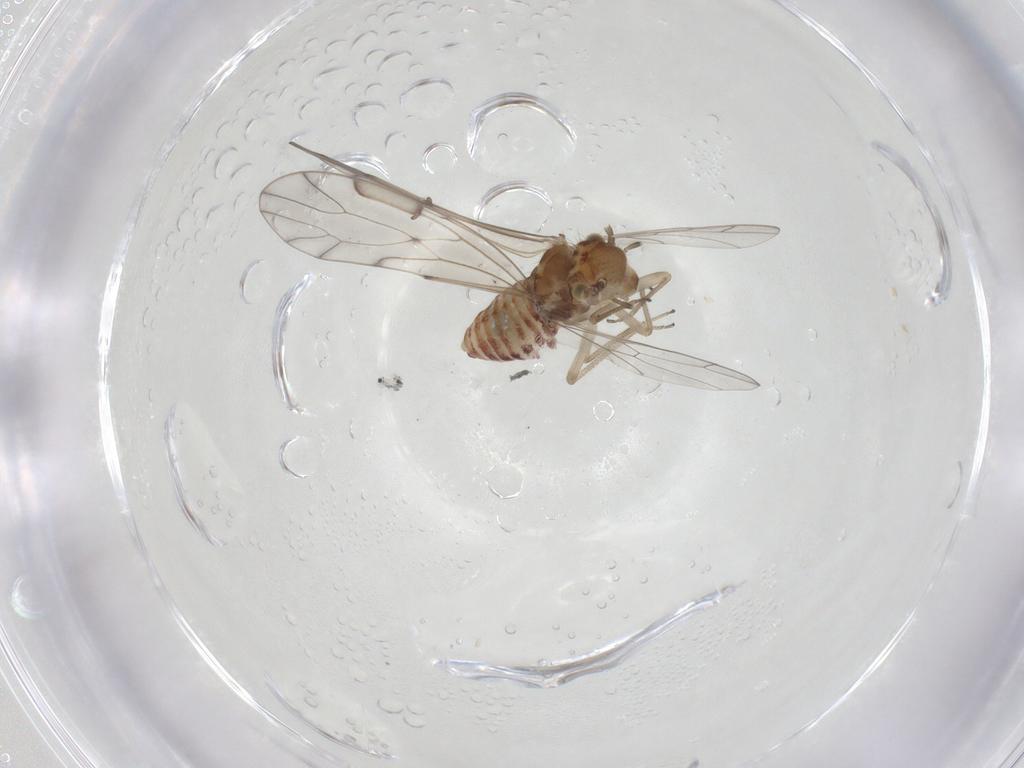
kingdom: Animalia
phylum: Arthropoda
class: Insecta
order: Psocodea
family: Caeciliusidae
